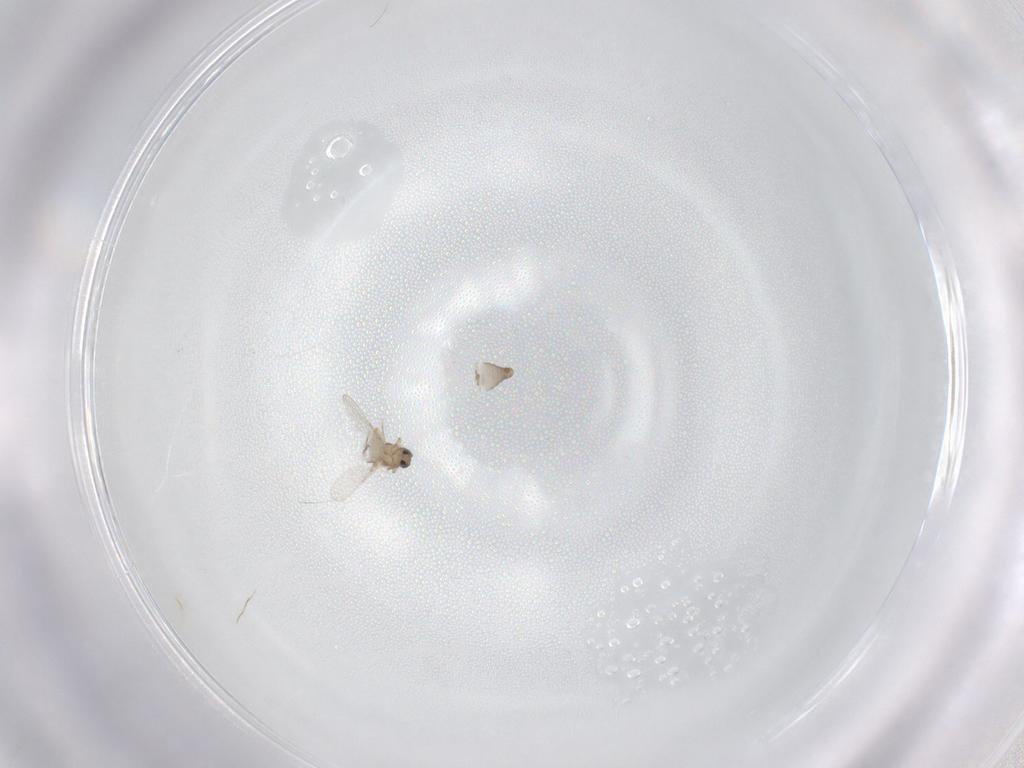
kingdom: Animalia
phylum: Arthropoda
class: Insecta
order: Diptera
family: Ceratopogonidae
